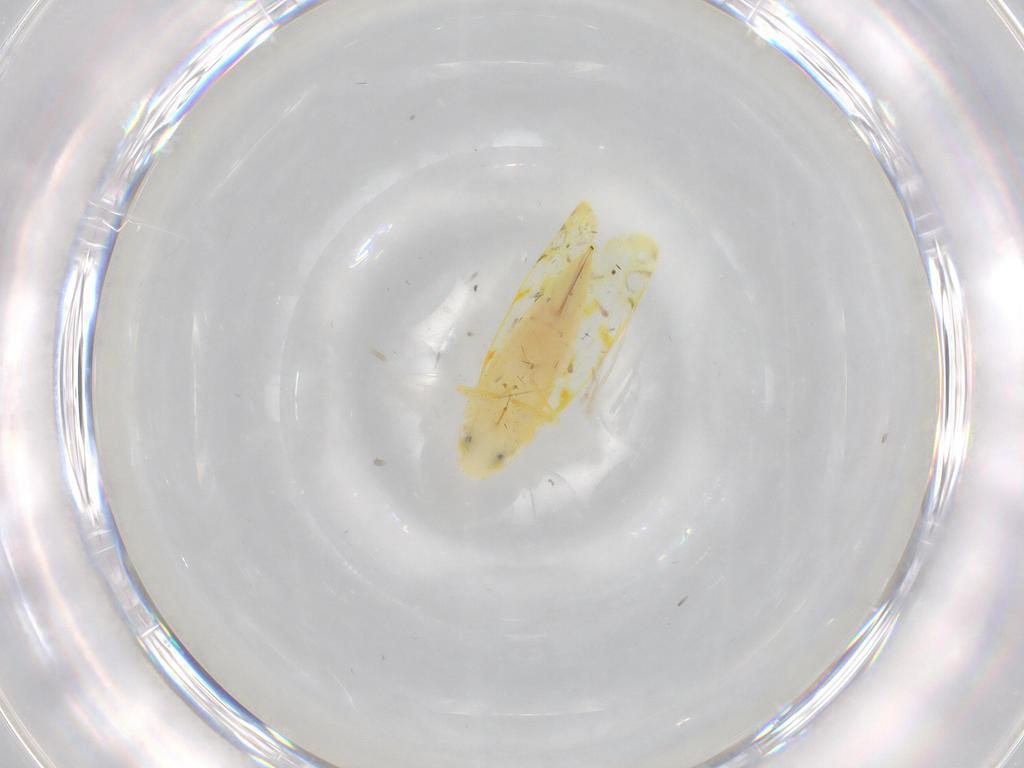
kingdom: Animalia
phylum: Arthropoda
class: Insecta
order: Hemiptera
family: Cicadellidae
